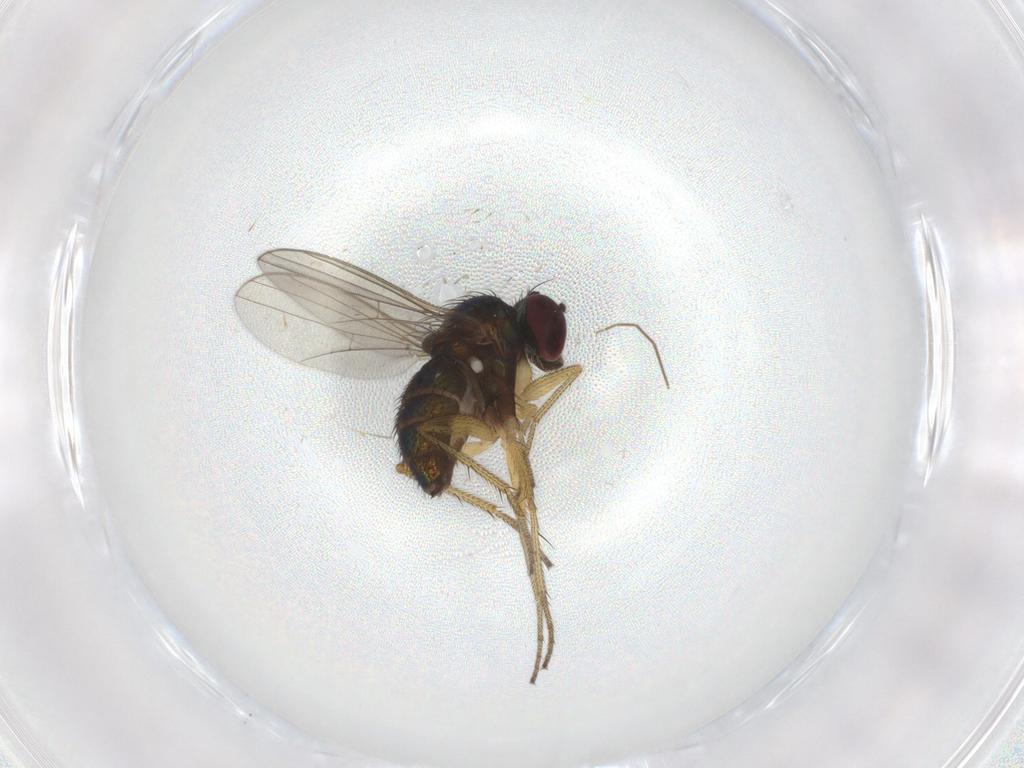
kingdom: Animalia
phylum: Arthropoda
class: Insecta
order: Diptera
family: Dolichopodidae
